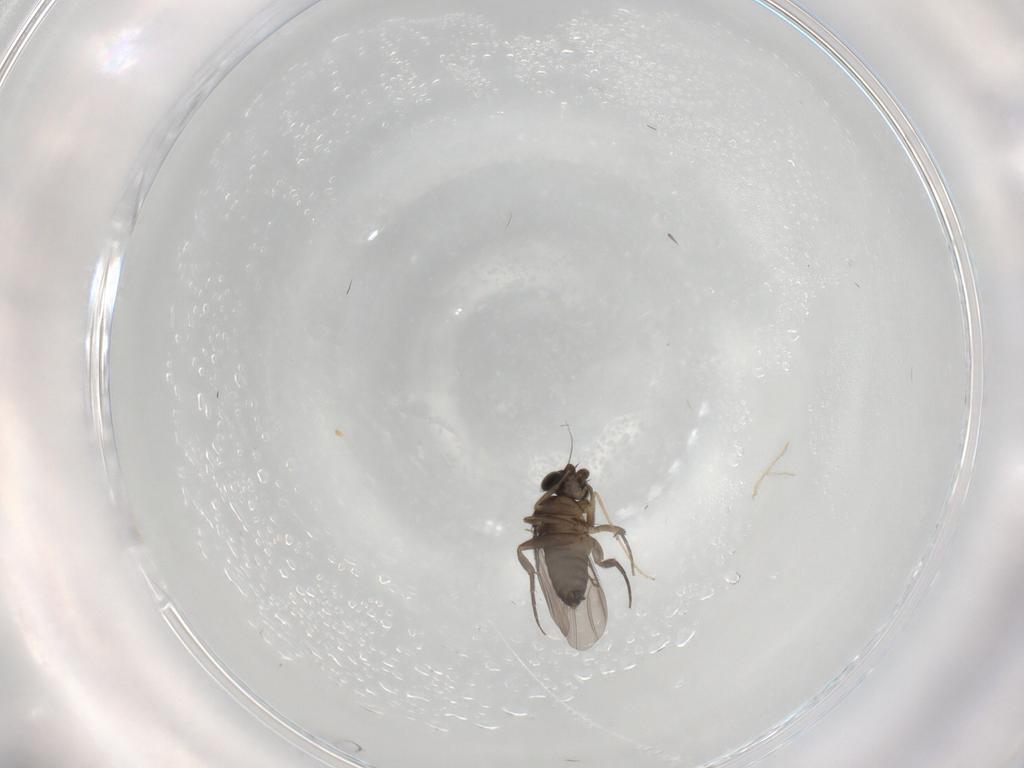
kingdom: Animalia
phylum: Arthropoda
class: Insecta
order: Diptera
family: Phoridae
